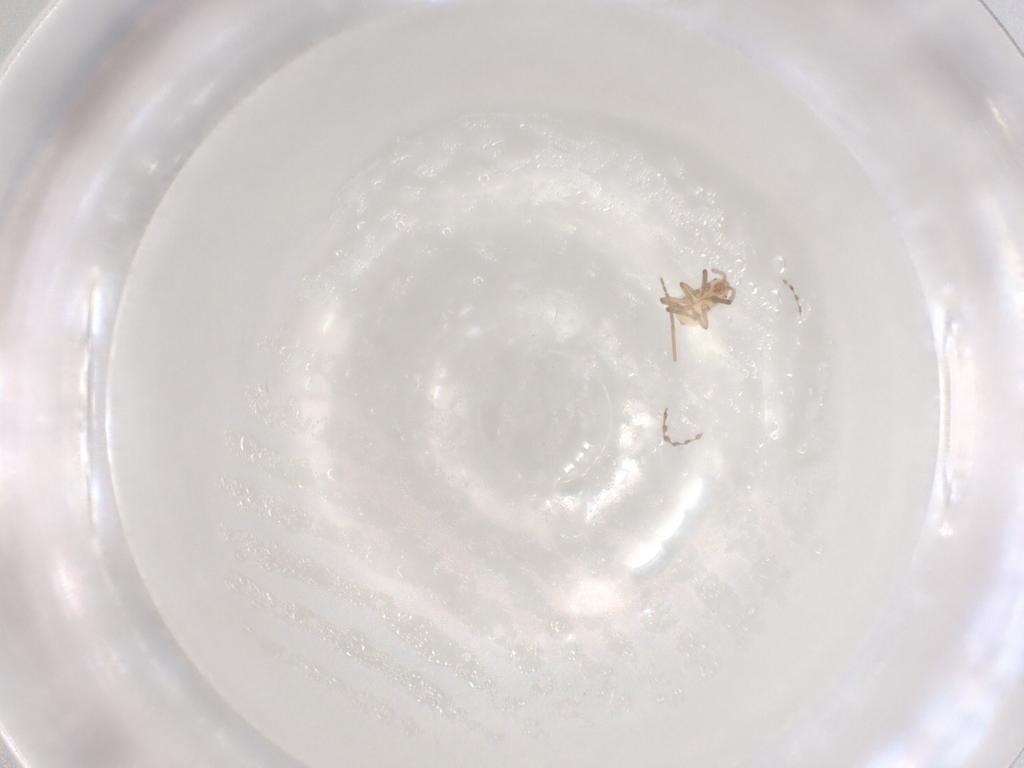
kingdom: Animalia
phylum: Arthropoda
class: Insecta
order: Hemiptera
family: Aphididae
